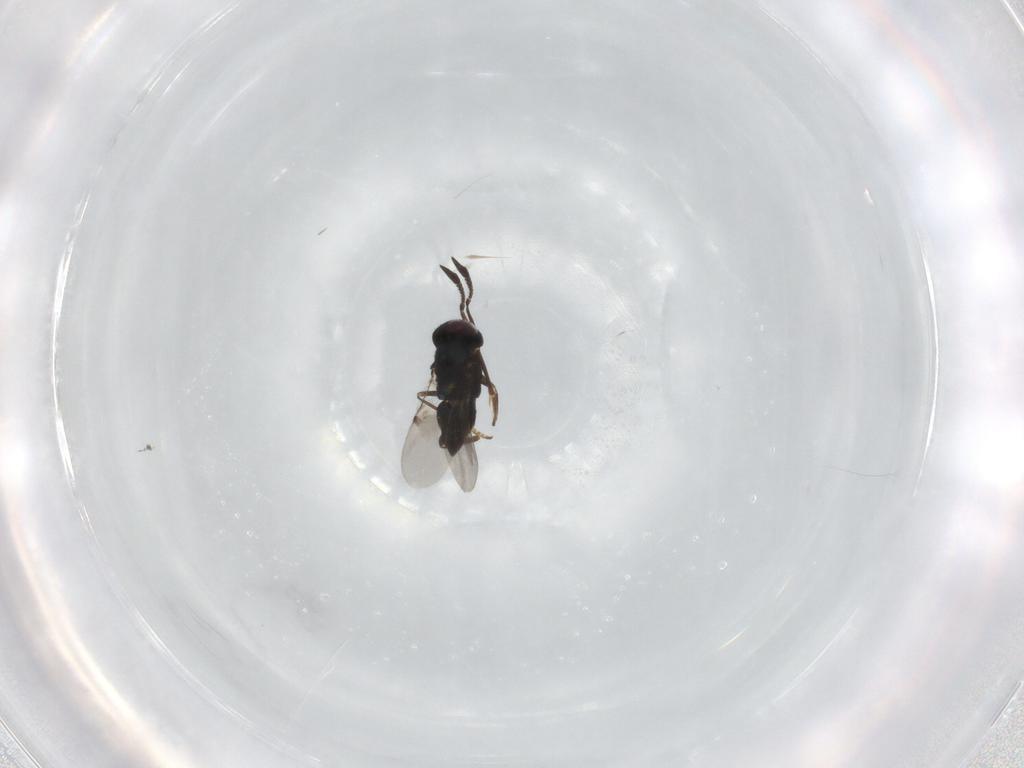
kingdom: Animalia
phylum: Arthropoda
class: Insecta
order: Hymenoptera
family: Encyrtidae
